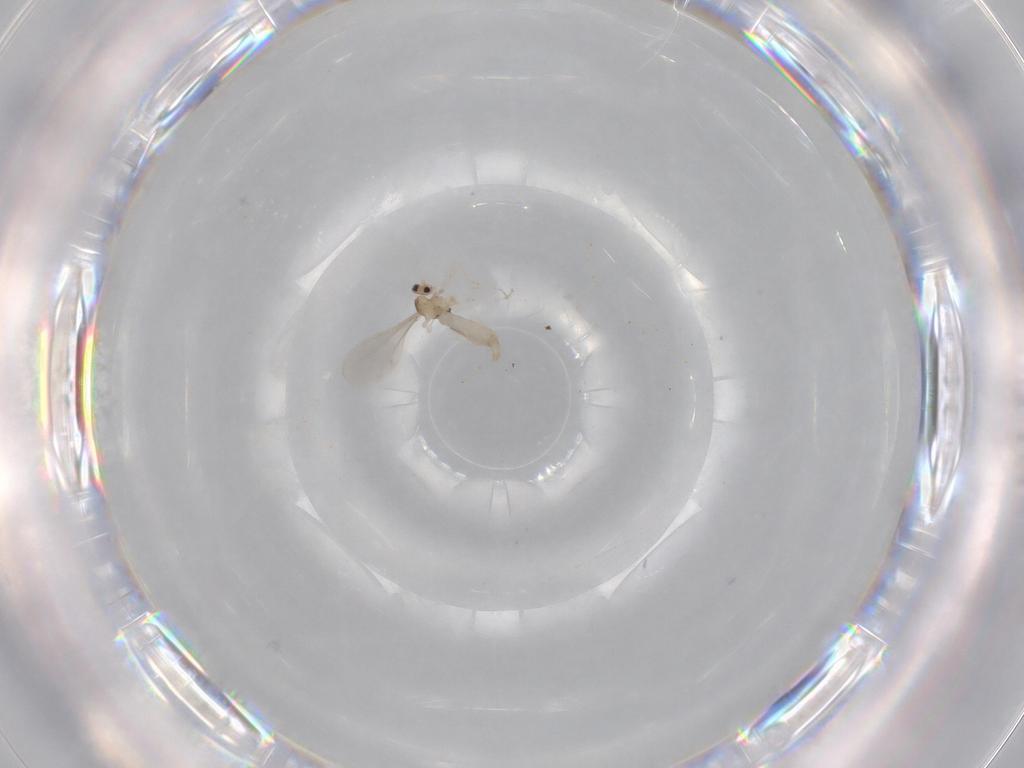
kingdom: Animalia
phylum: Arthropoda
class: Insecta
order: Diptera
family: Cecidomyiidae
